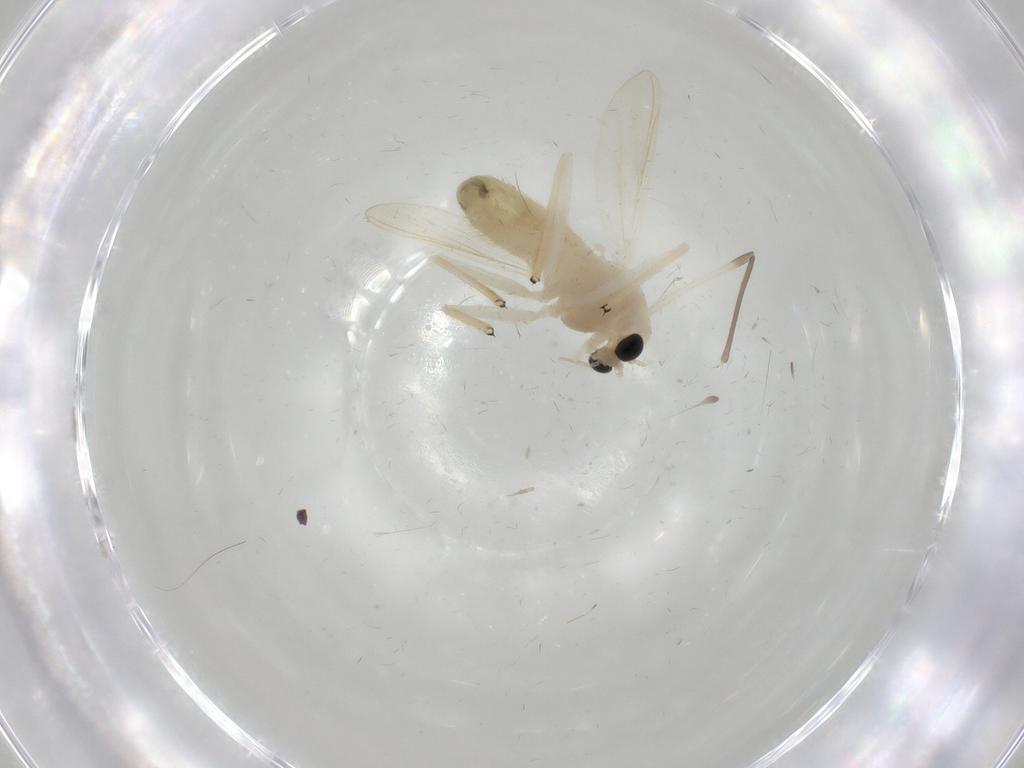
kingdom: Animalia
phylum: Arthropoda
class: Insecta
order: Diptera
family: Chironomidae
